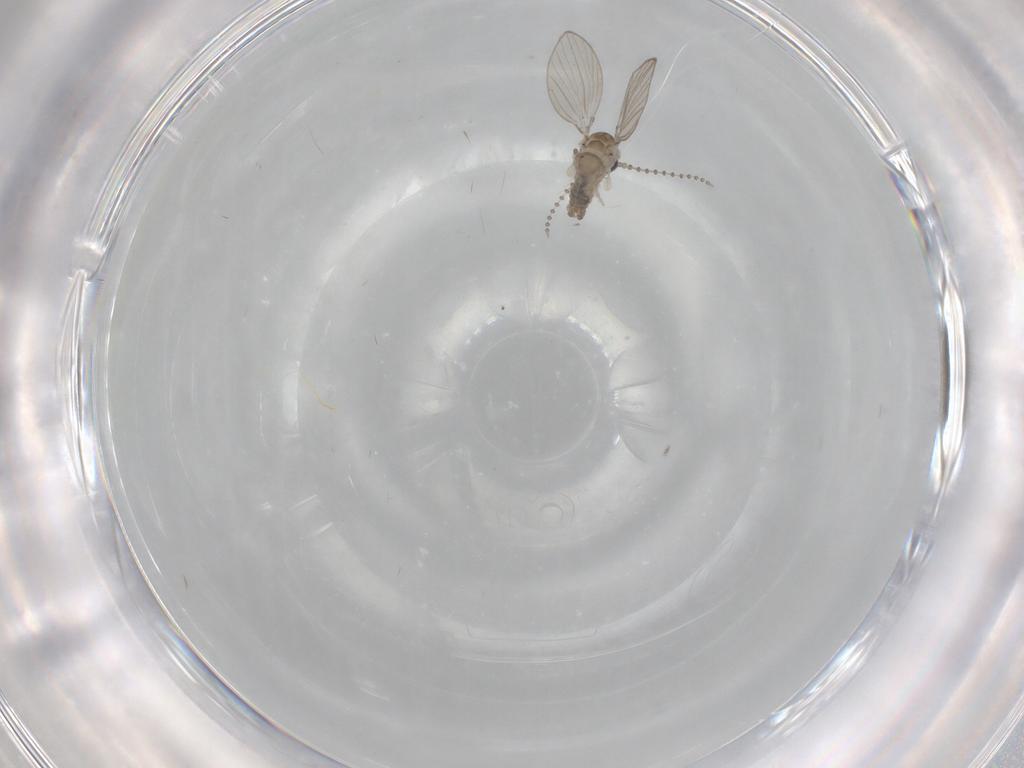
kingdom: Animalia
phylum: Arthropoda
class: Insecta
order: Diptera
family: Psychodidae
